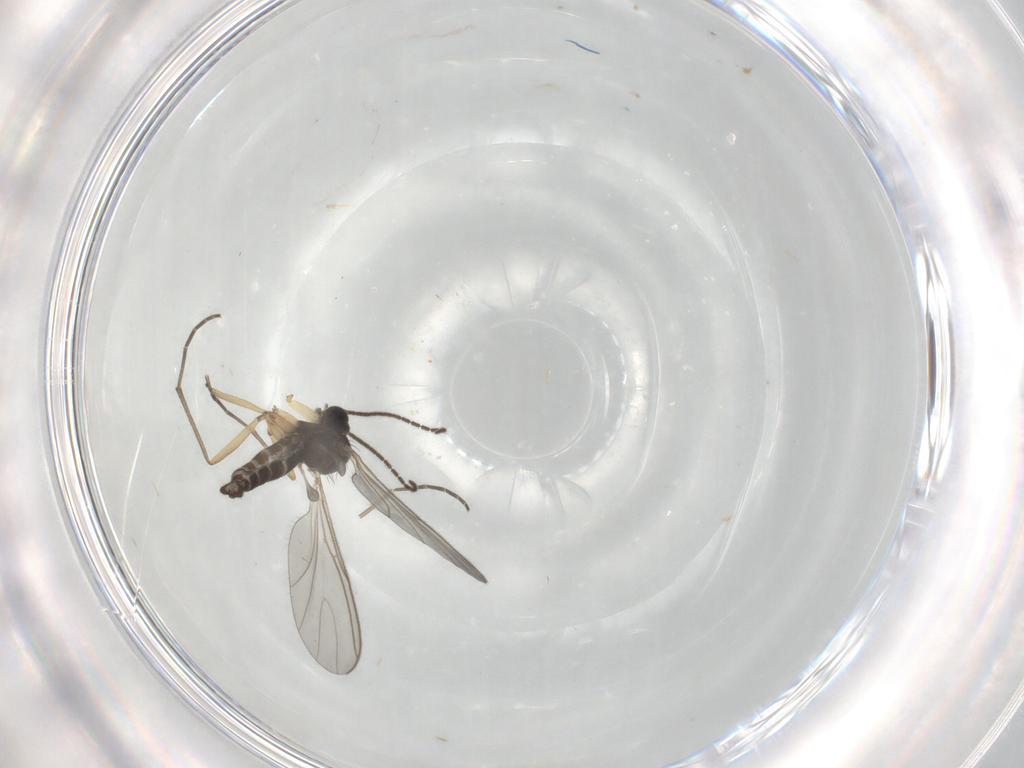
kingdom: Animalia
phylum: Arthropoda
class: Insecta
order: Diptera
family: Sciaridae
